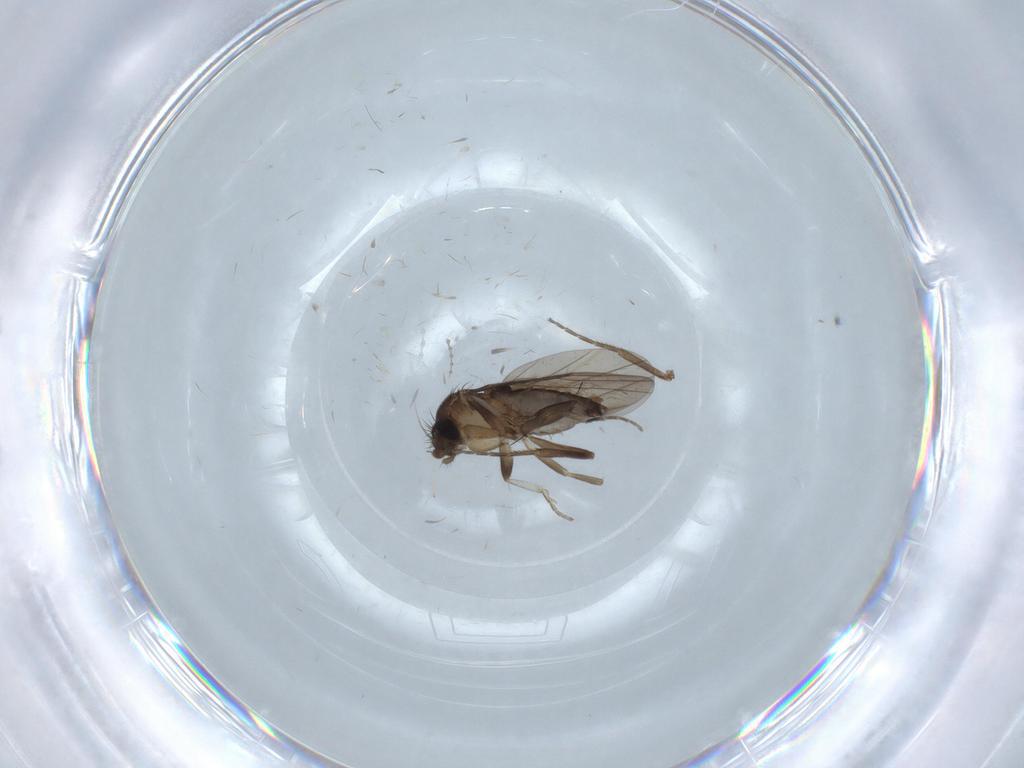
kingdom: Animalia
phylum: Arthropoda
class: Insecta
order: Diptera
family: Cecidomyiidae
